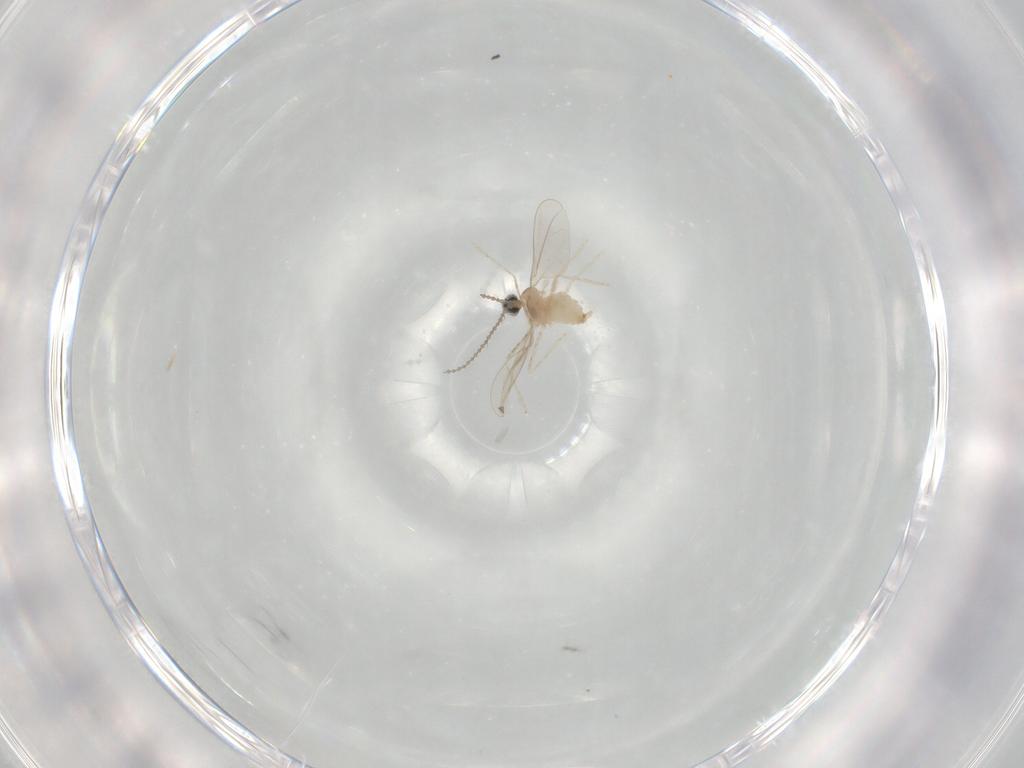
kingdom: Animalia
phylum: Arthropoda
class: Insecta
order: Diptera
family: Cecidomyiidae
